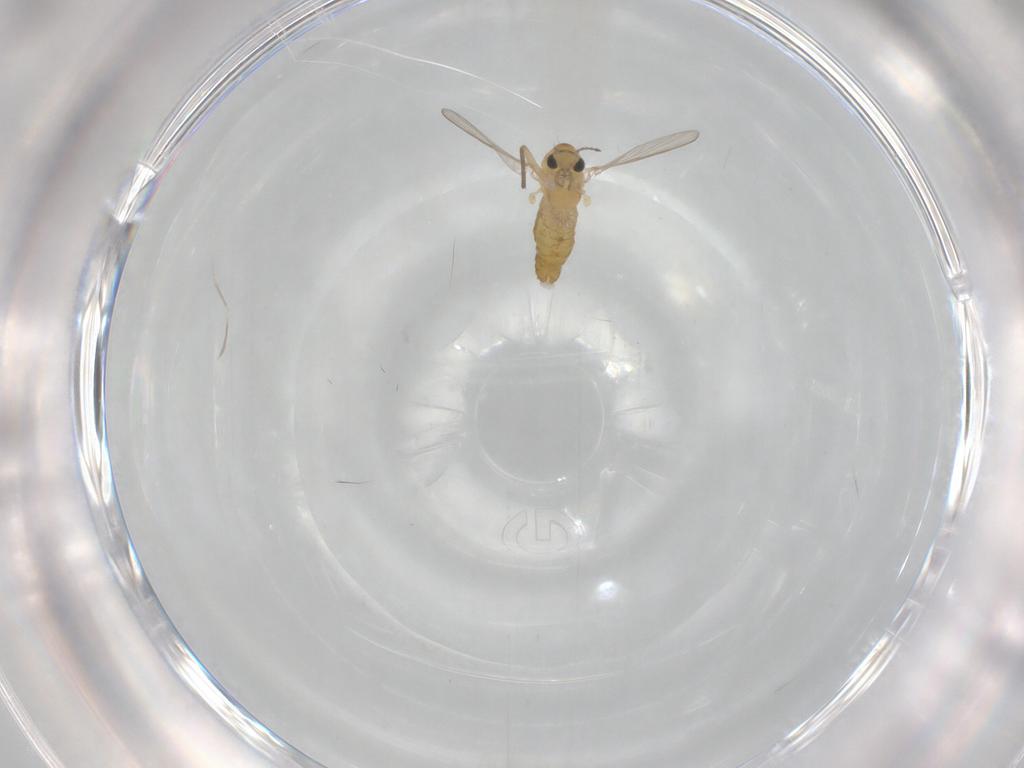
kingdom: Animalia
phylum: Arthropoda
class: Insecta
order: Diptera
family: Chironomidae
